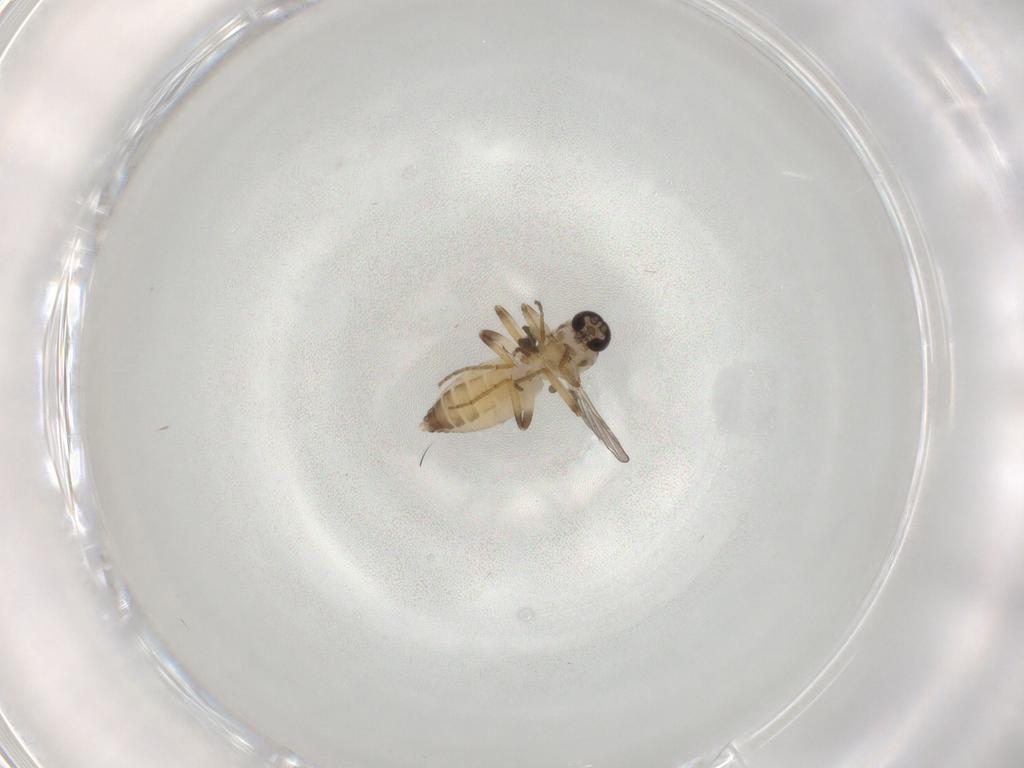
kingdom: Animalia
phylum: Arthropoda
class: Insecta
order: Diptera
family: Ceratopogonidae
